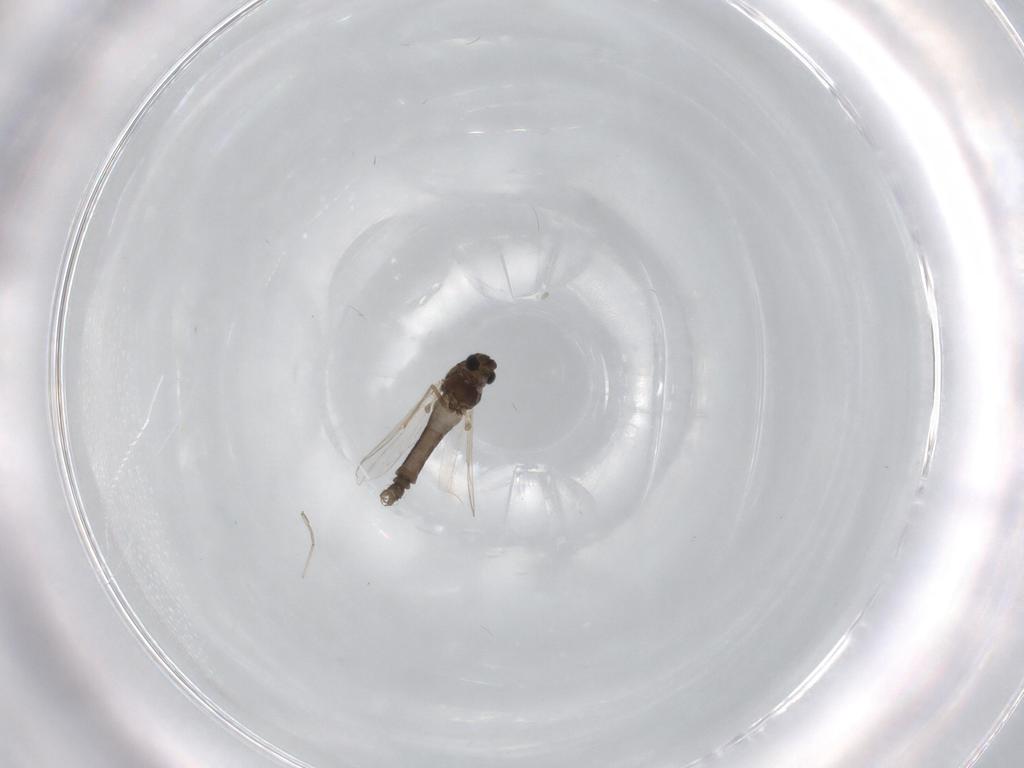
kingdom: Animalia
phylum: Arthropoda
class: Insecta
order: Diptera
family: Chironomidae
